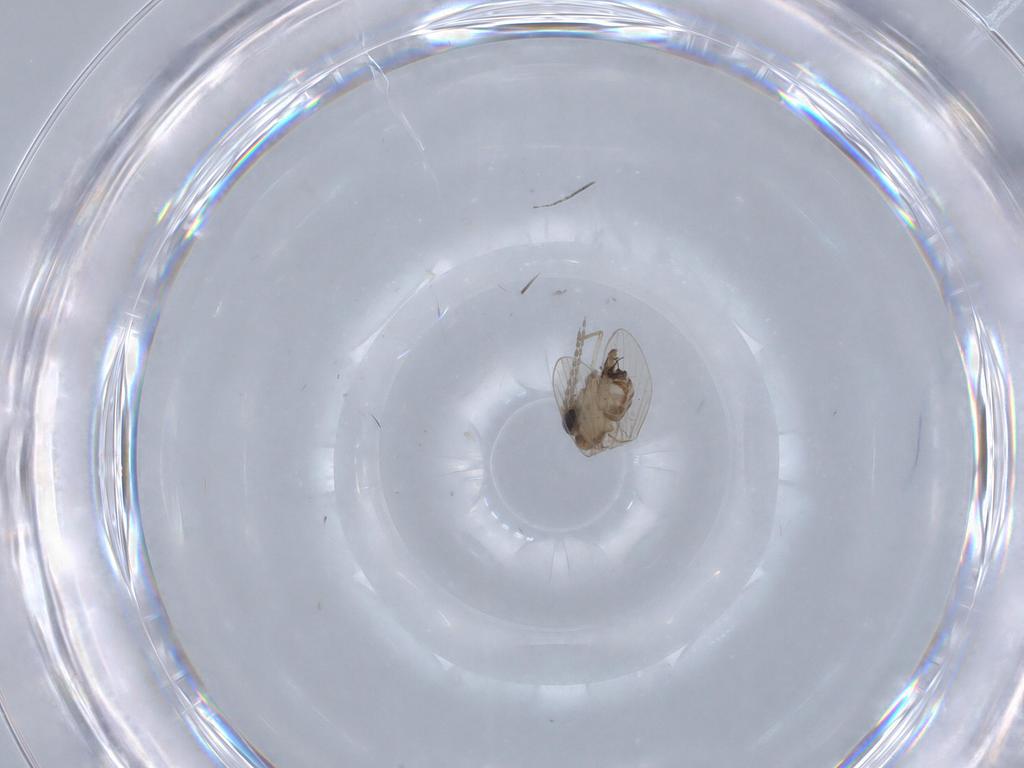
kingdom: Animalia
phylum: Arthropoda
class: Insecta
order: Diptera
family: Psychodidae
